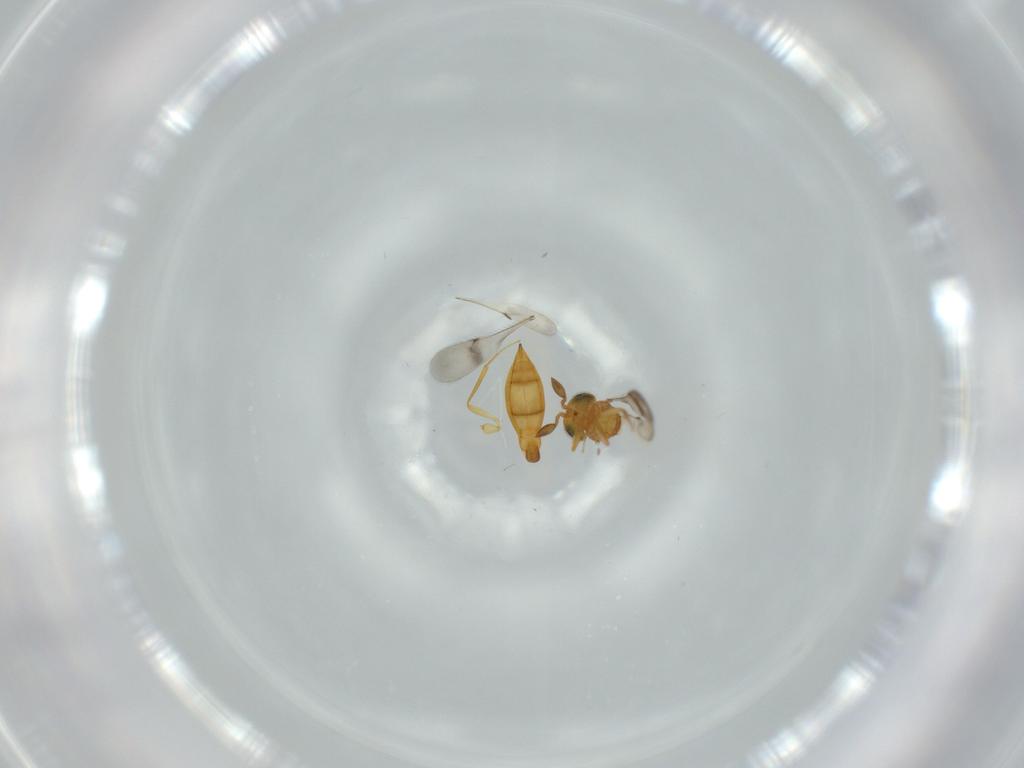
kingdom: Animalia
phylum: Arthropoda
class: Insecta
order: Hymenoptera
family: Scelionidae
